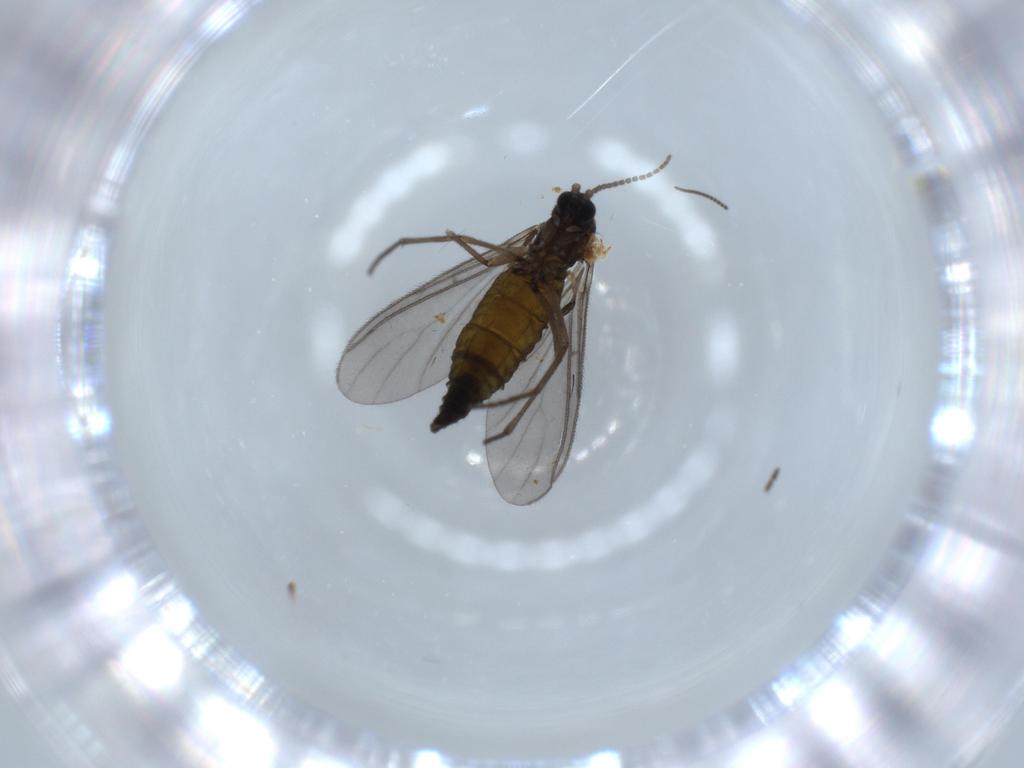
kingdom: Animalia
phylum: Arthropoda
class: Insecta
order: Diptera
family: Sciaridae
